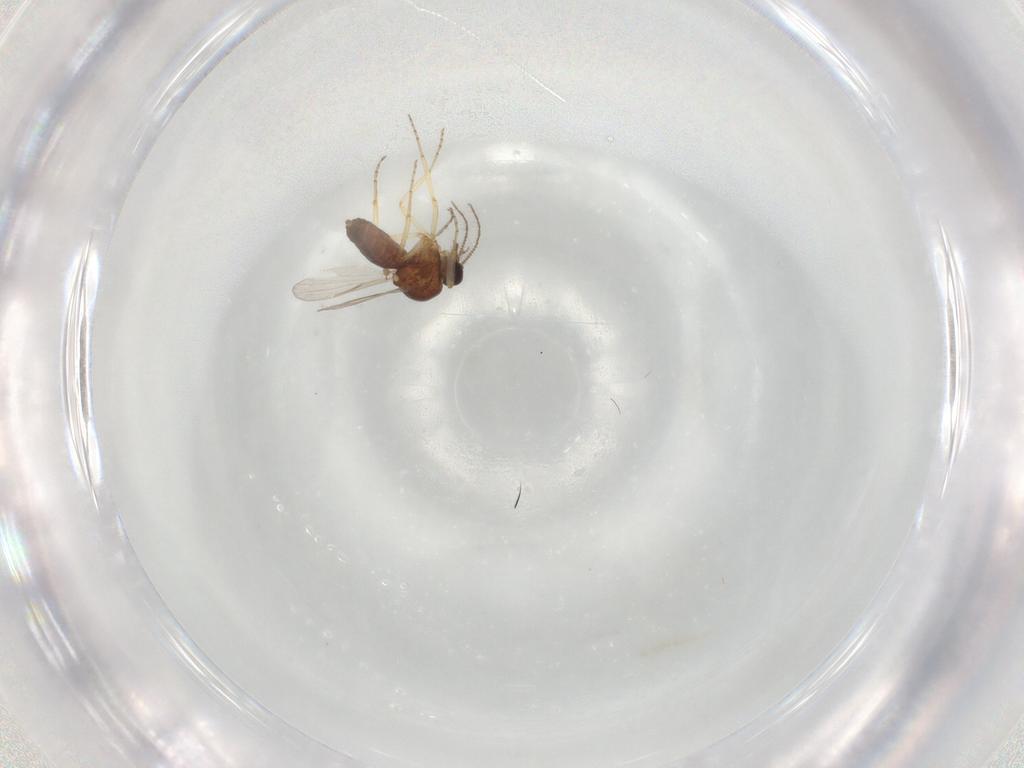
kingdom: Animalia
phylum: Arthropoda
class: Insecta
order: Diptera
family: Ceratopogonidae
